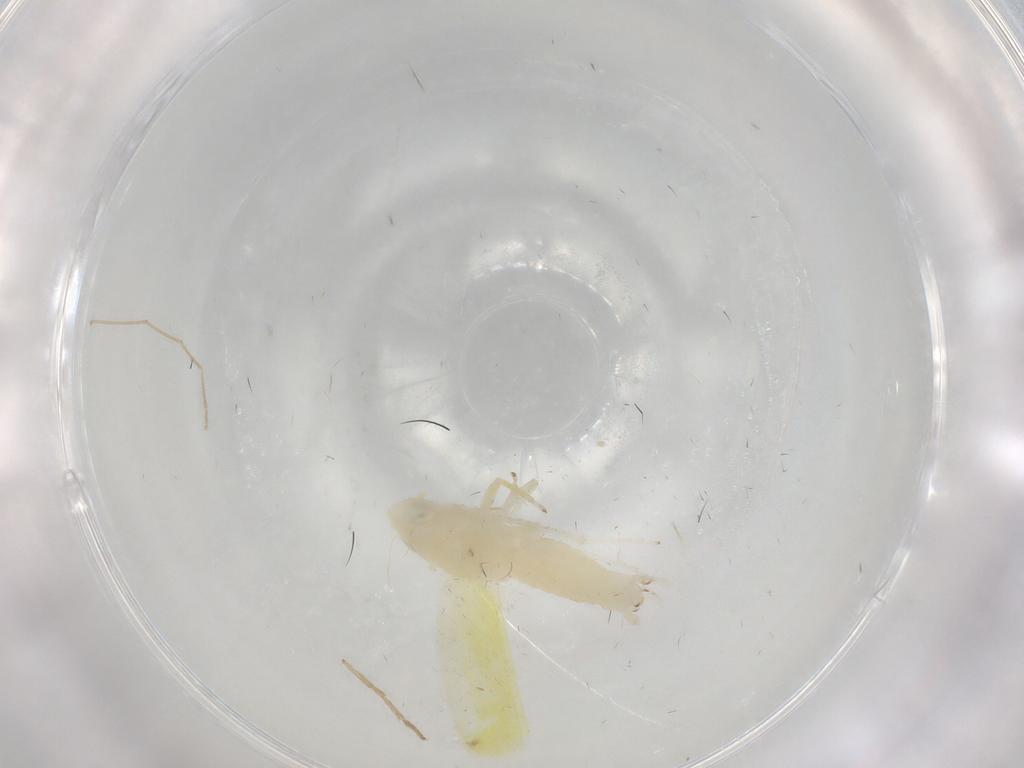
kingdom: Animalia
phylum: Arthropoda
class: Insecta
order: Hemiptera
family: Cicadellidae
